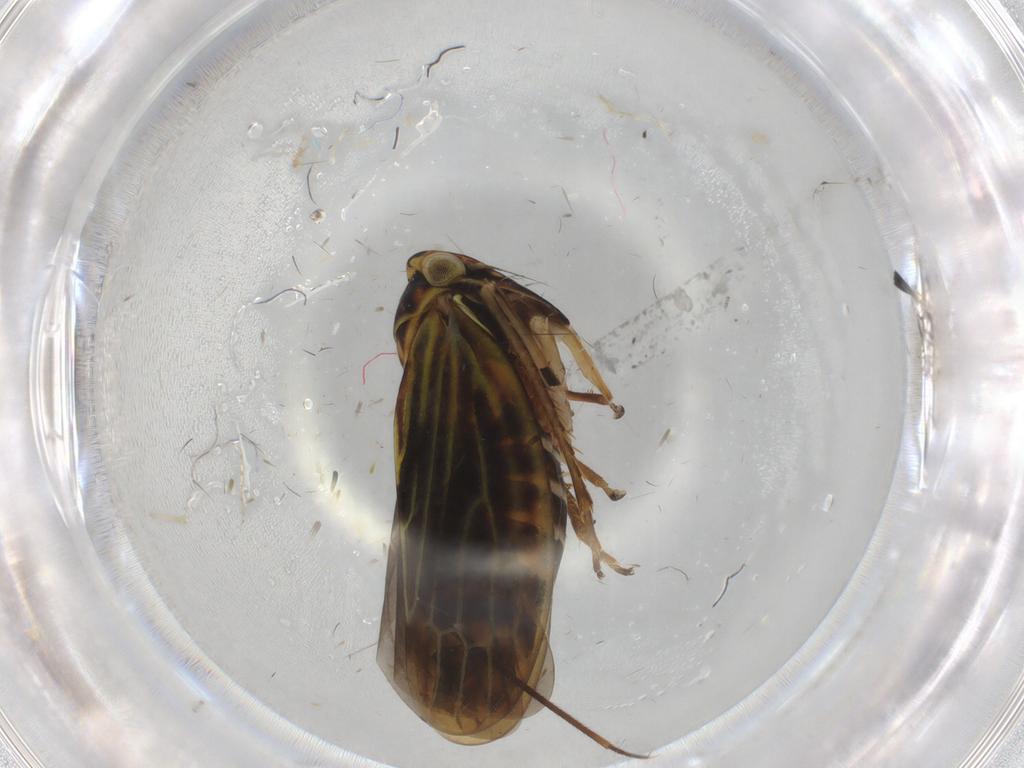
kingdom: Animalia
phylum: Arthropoda
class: Insecta
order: Hemiptera
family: Cicadellidae
